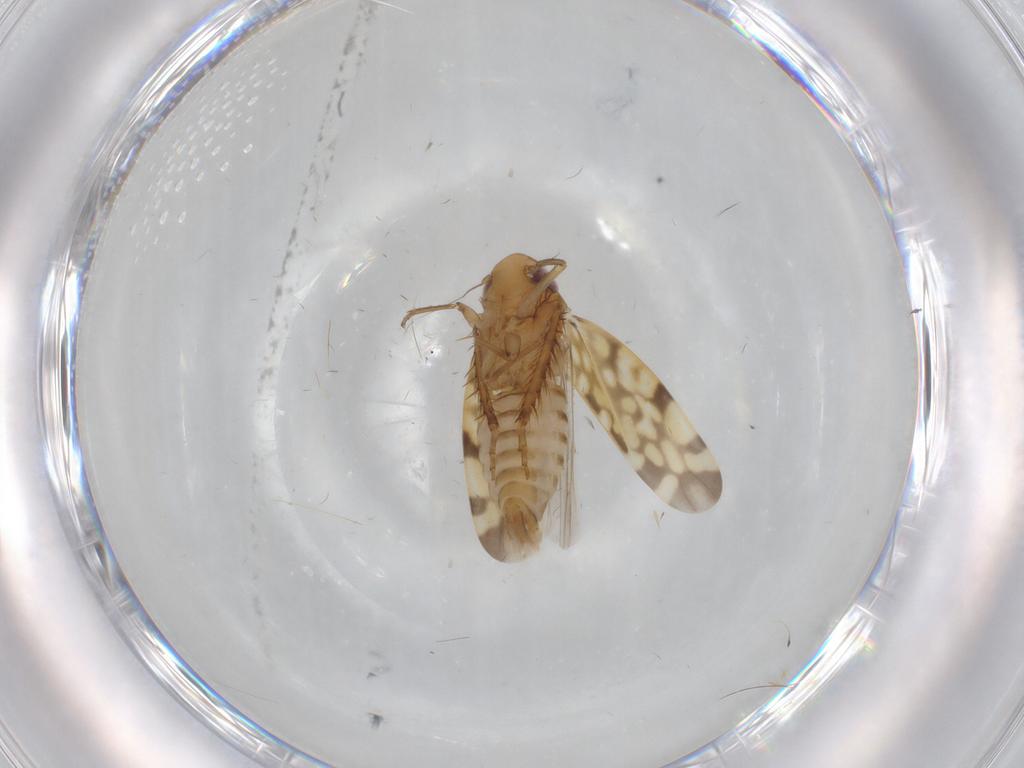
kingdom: Animalia
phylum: Arthropoda
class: Insecta
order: Hemiptera
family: Cicadellidae
